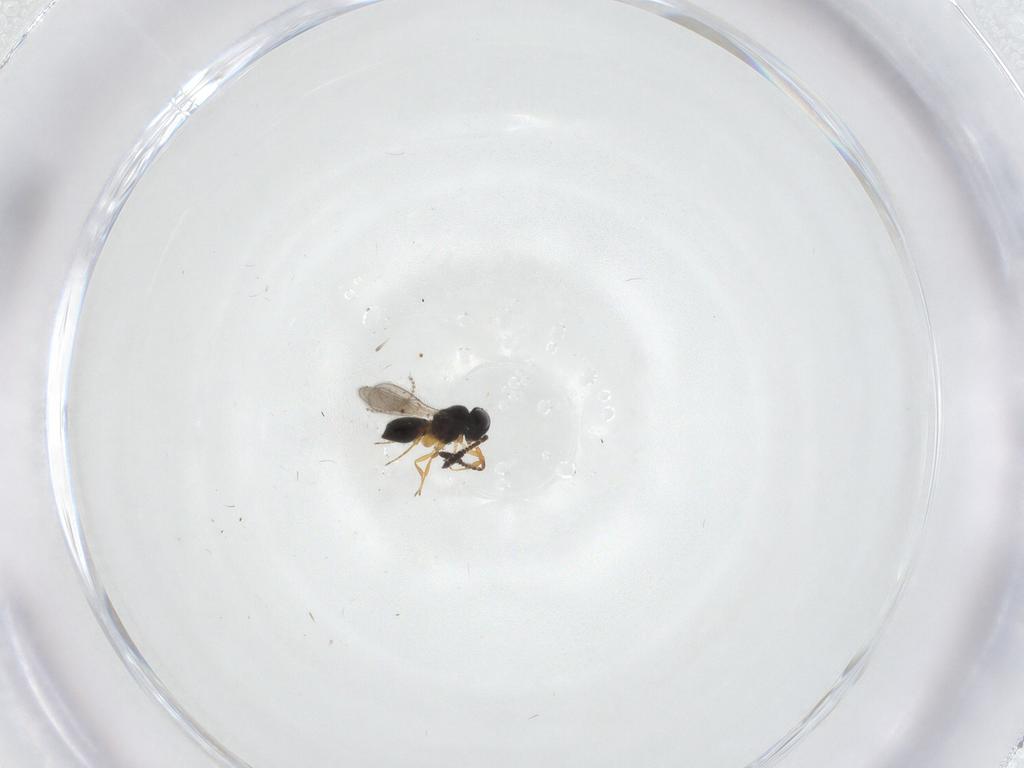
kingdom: Animalia
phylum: Arthropoda
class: Insecta
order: Hymenoptera
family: Scelionidae
